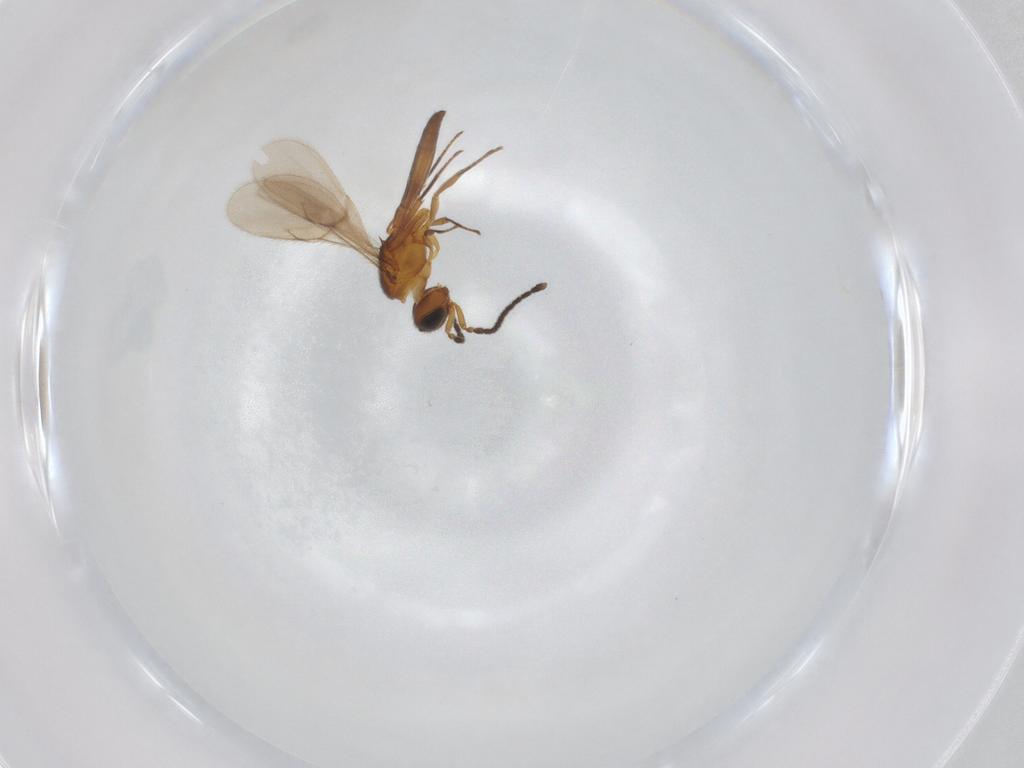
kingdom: Animalia
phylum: Arthropoda
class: Insecta
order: Hymenoptera
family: Scelionidae
